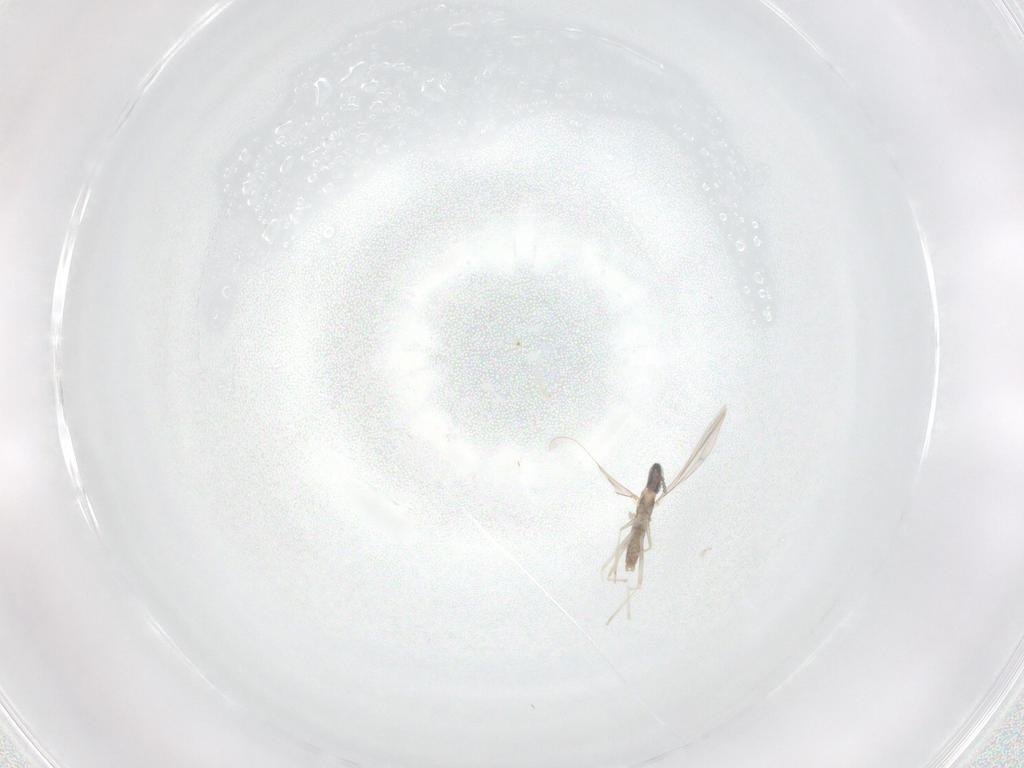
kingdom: Animalia
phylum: Arthropoda
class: Insecta
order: Diptera
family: Cecidomyiidae
